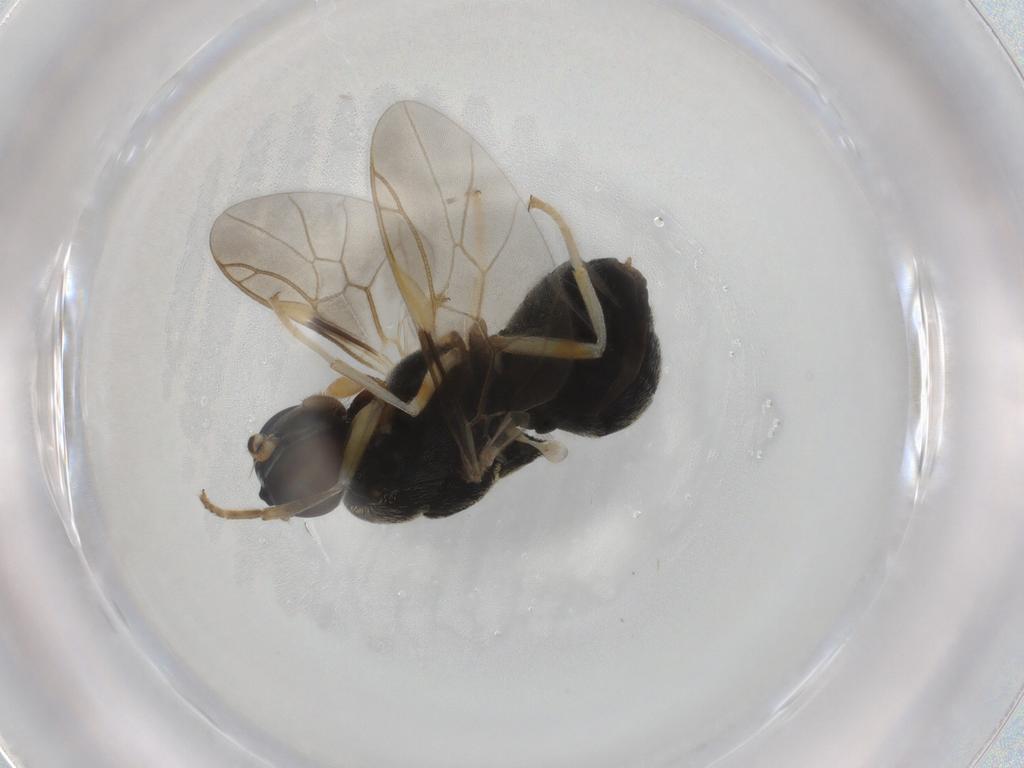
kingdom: Animalia
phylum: Arthropoda
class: Insecta
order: Diptera
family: Stratiomyidae
